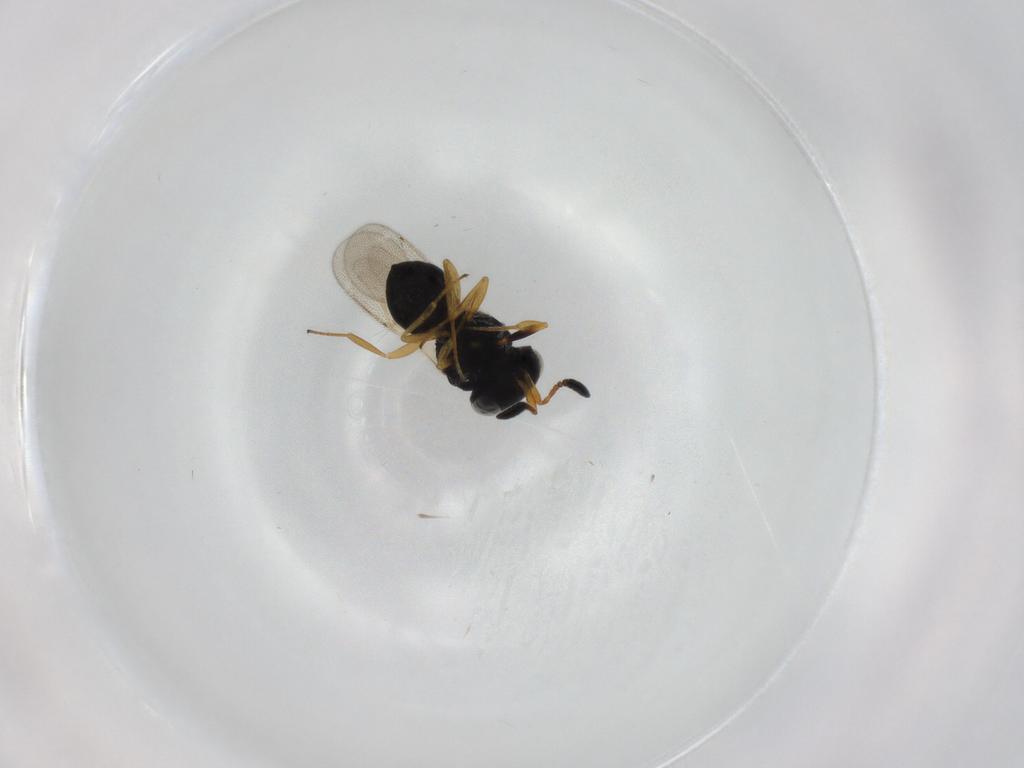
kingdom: Animalia
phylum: Arthropoda
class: Insecta
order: Hymenoptera
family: Scelionidae
